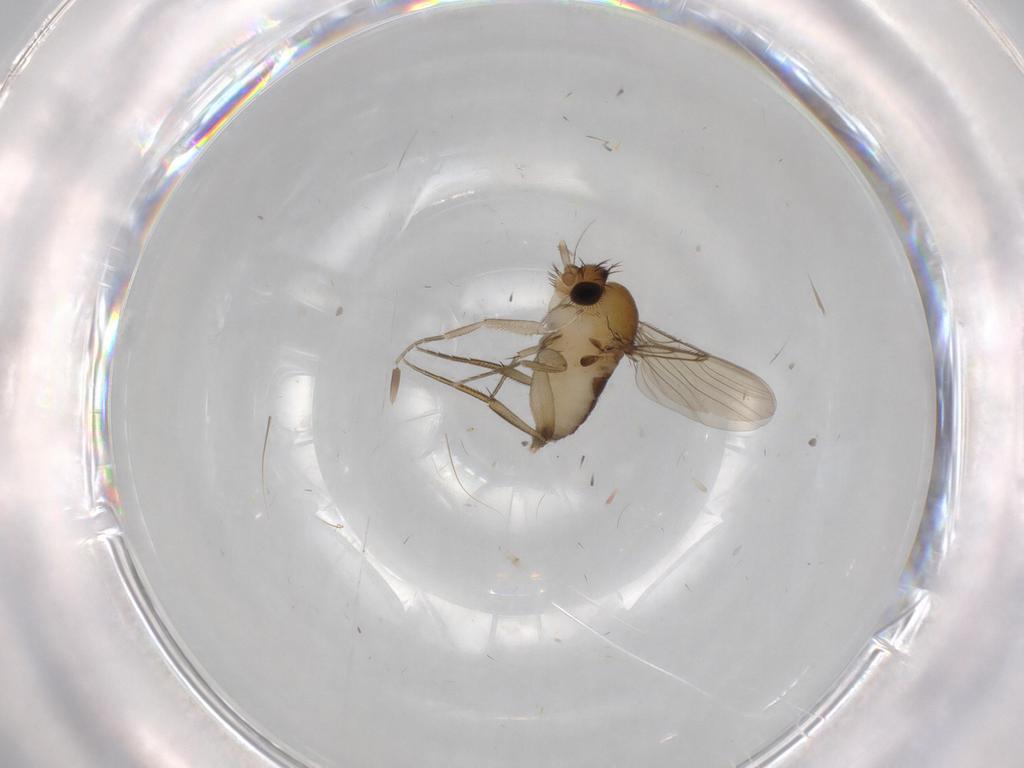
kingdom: Animalia
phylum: Arthropoda
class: Insecta
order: Diptera
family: Phoridae
